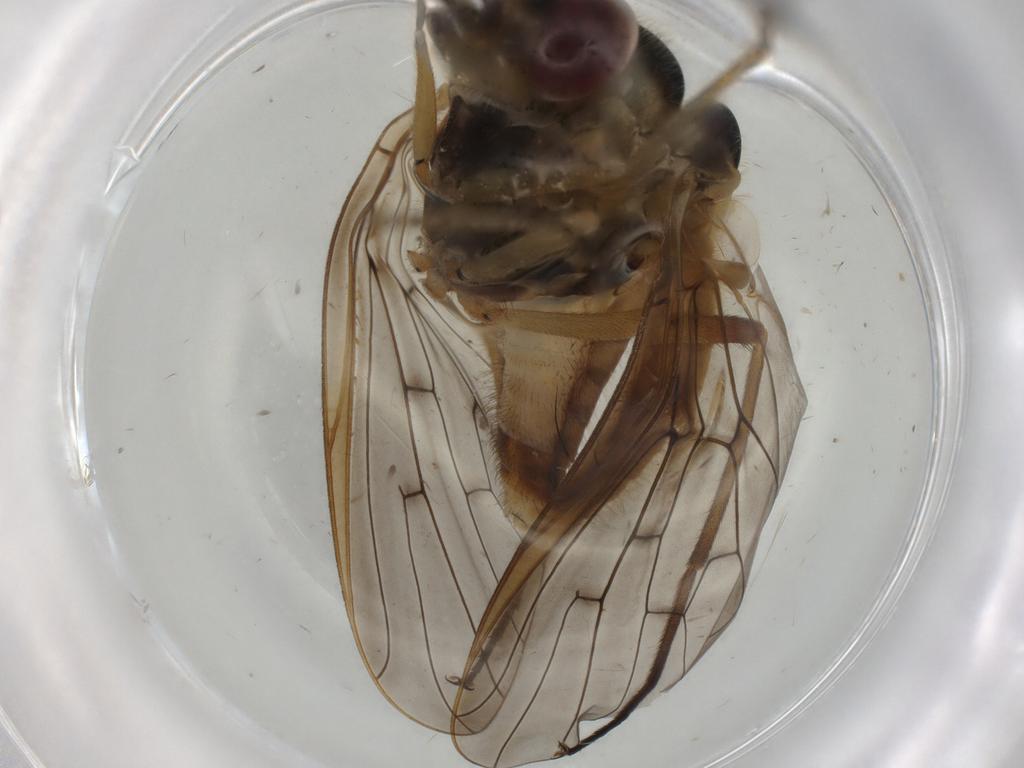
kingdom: Animalia
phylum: Arthropoda
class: Insecta
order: Diptera
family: Bombyliidae
